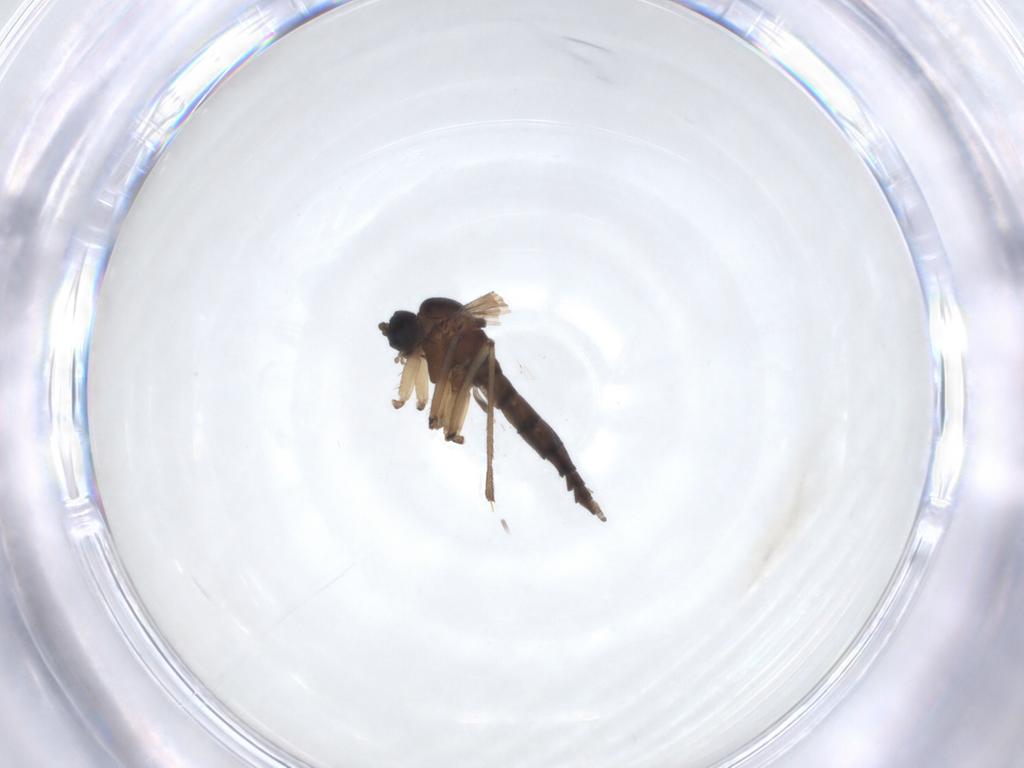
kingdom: Animalia
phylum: Arthropoda
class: Insecta
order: Diptera
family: Sciaridae
